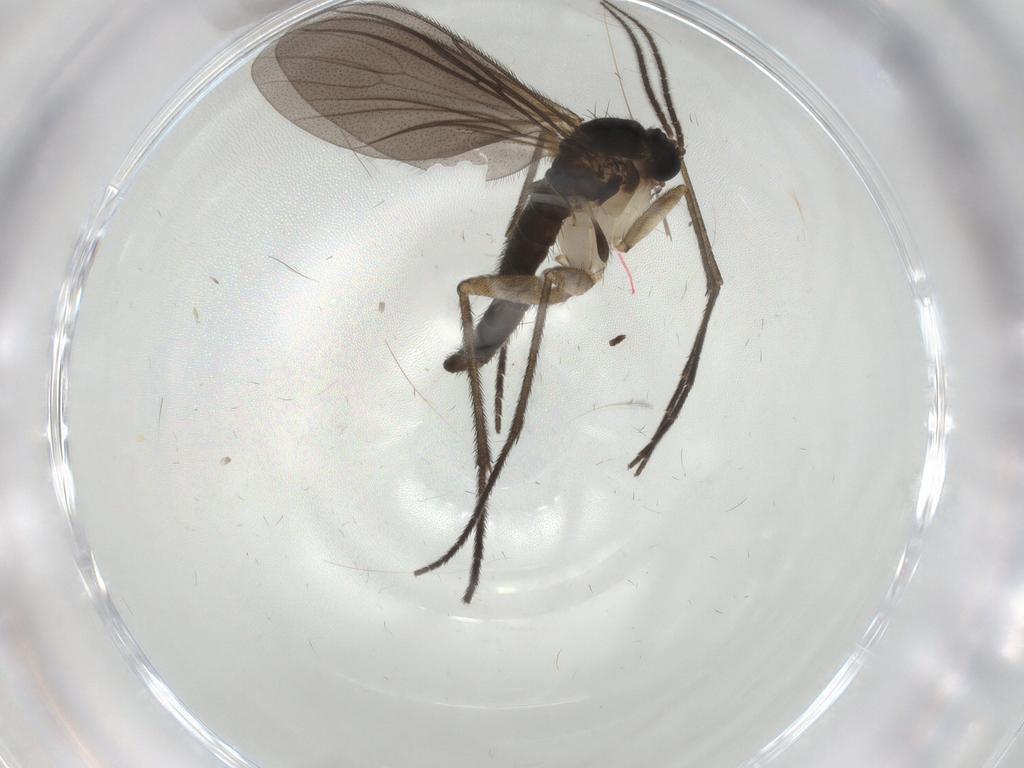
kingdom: Animalia
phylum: Arthropoda
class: Insecta
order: Diptera
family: Sciaridae
